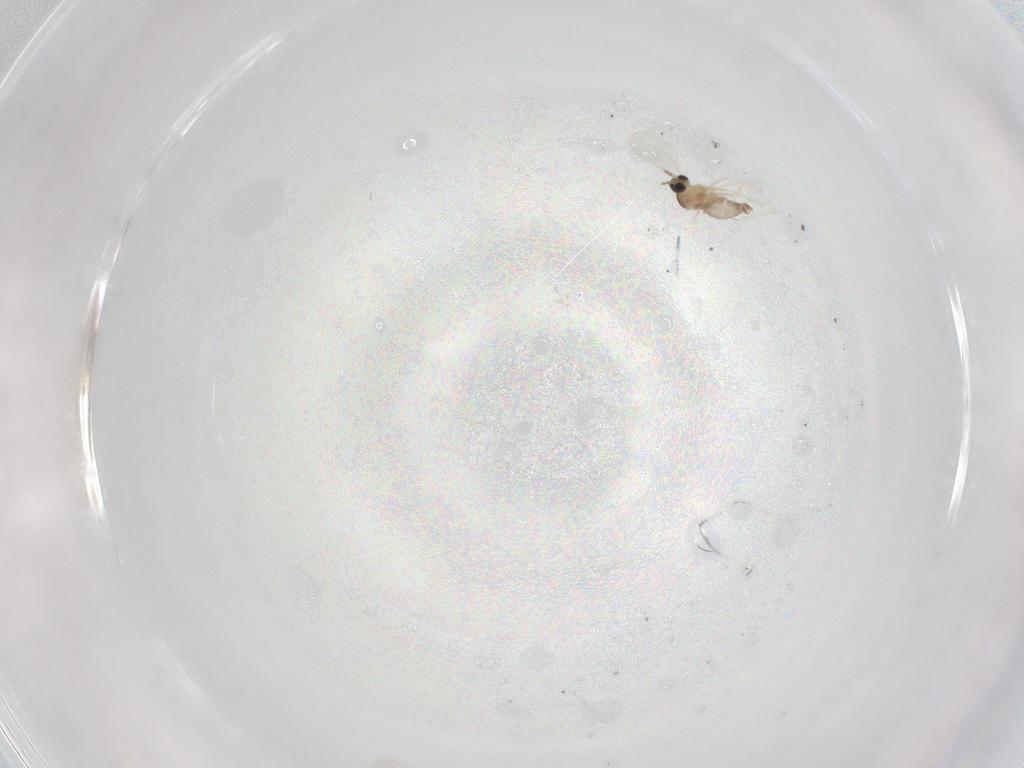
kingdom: Animalia
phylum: Arthropoda
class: Insecta
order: Diptera
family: Cecidomyiidae
